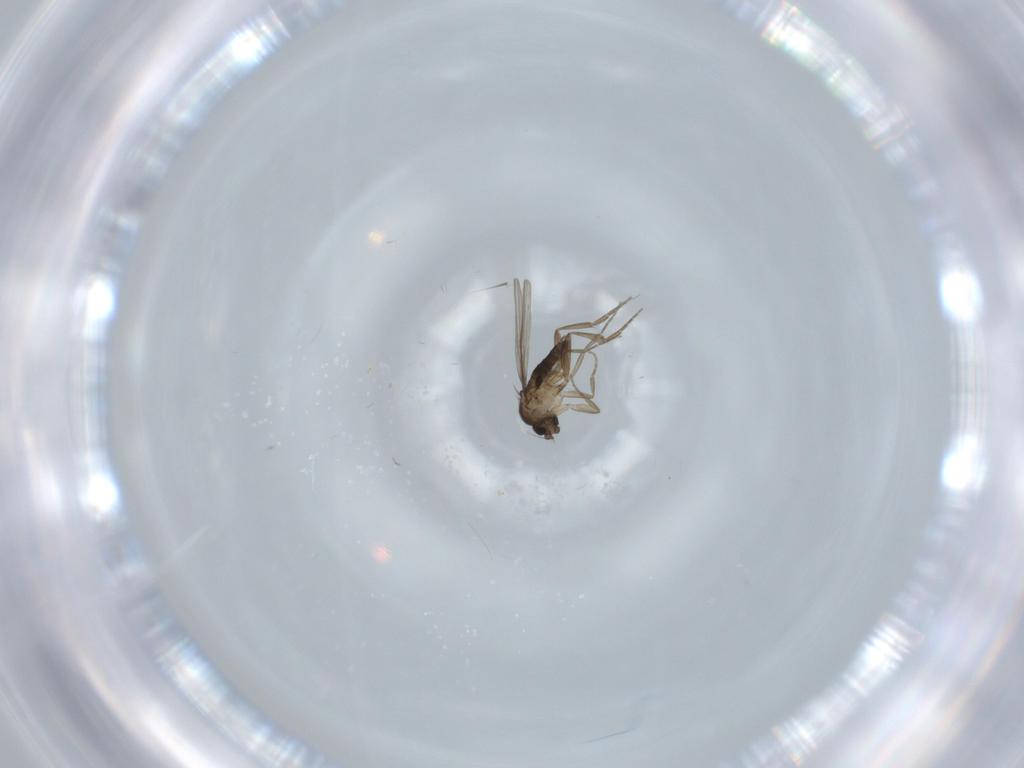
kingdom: Animalia
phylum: Arthropoda
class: Insecta
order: Diptera
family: Phoridae
